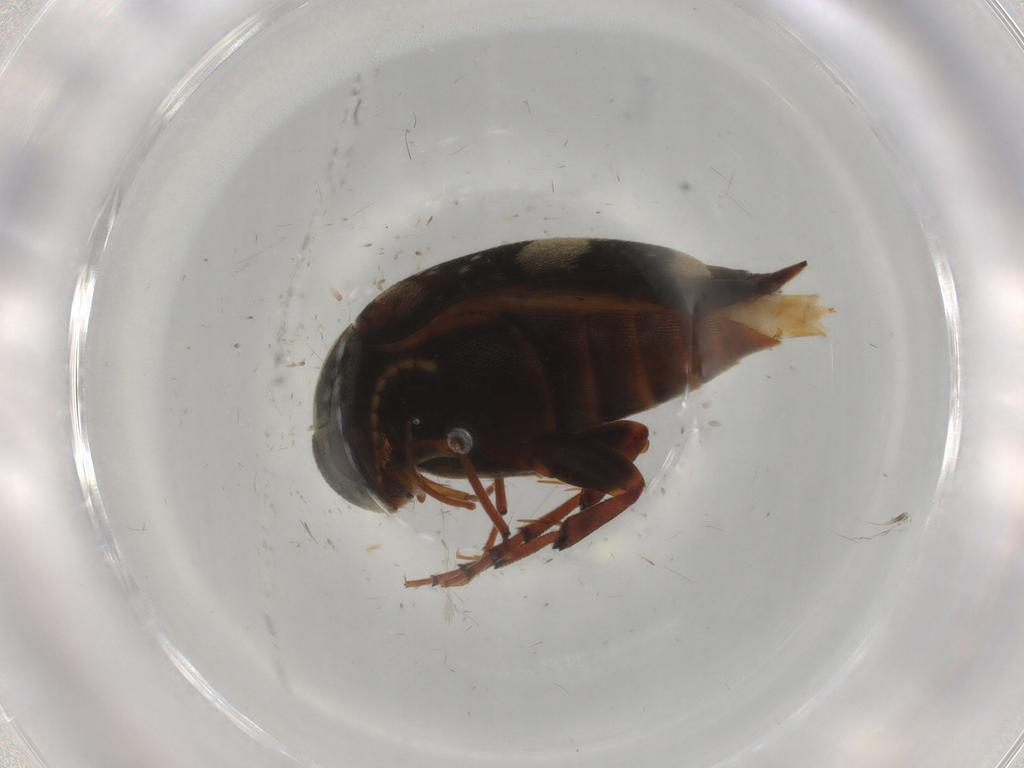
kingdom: Animalia
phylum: Arthropoda
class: Insecta
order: Coleoptera
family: Mordellidae
